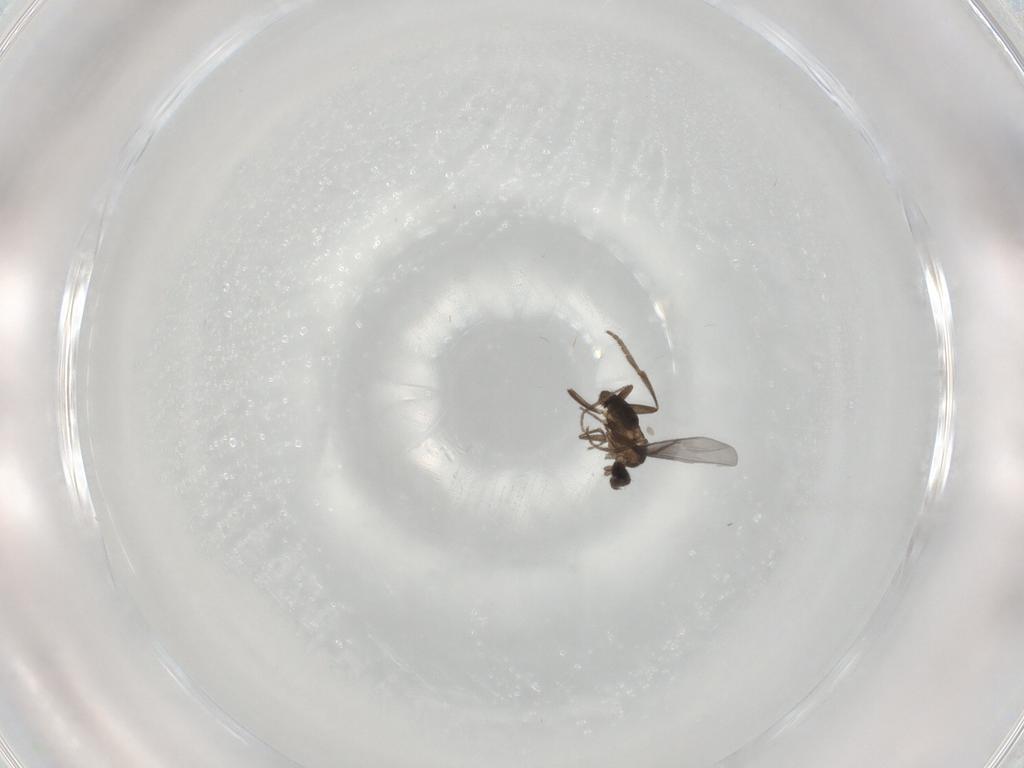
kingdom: Animalia
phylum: Arthropoda
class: Insecta
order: Diptera
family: Phoridae
